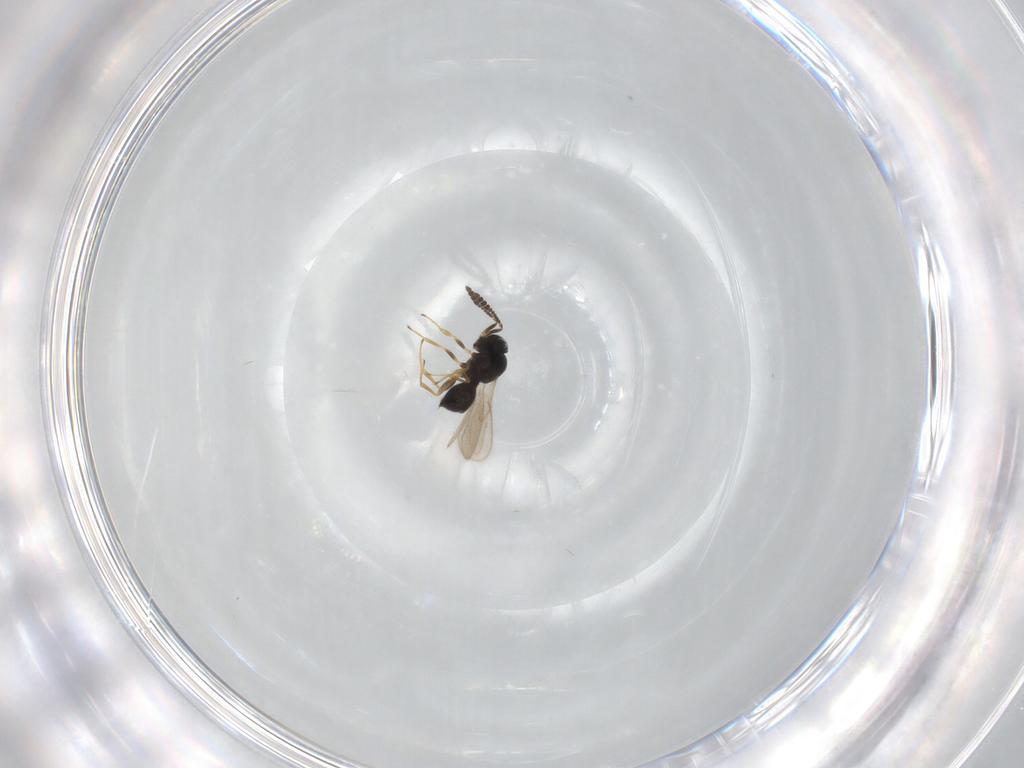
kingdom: Animalia
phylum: Arthropoda
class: Insecta
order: Hymenoptera
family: Scelionidae
